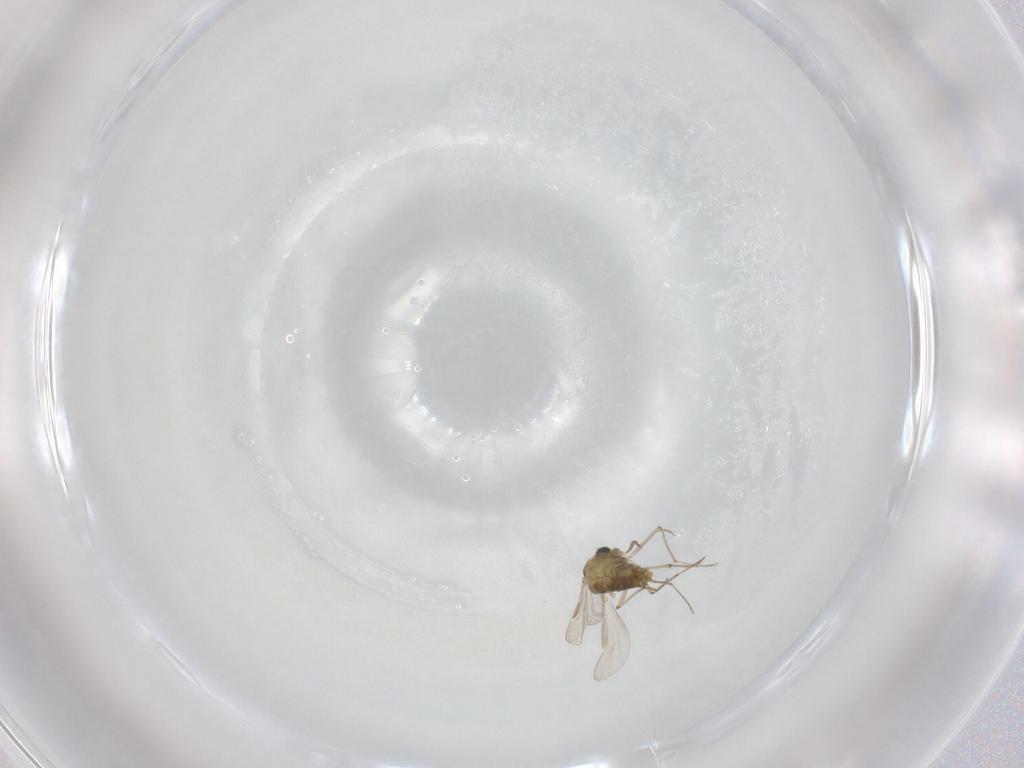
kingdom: Animalia
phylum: Arthropoda
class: Insecta
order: Diptera
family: Chironomidae
